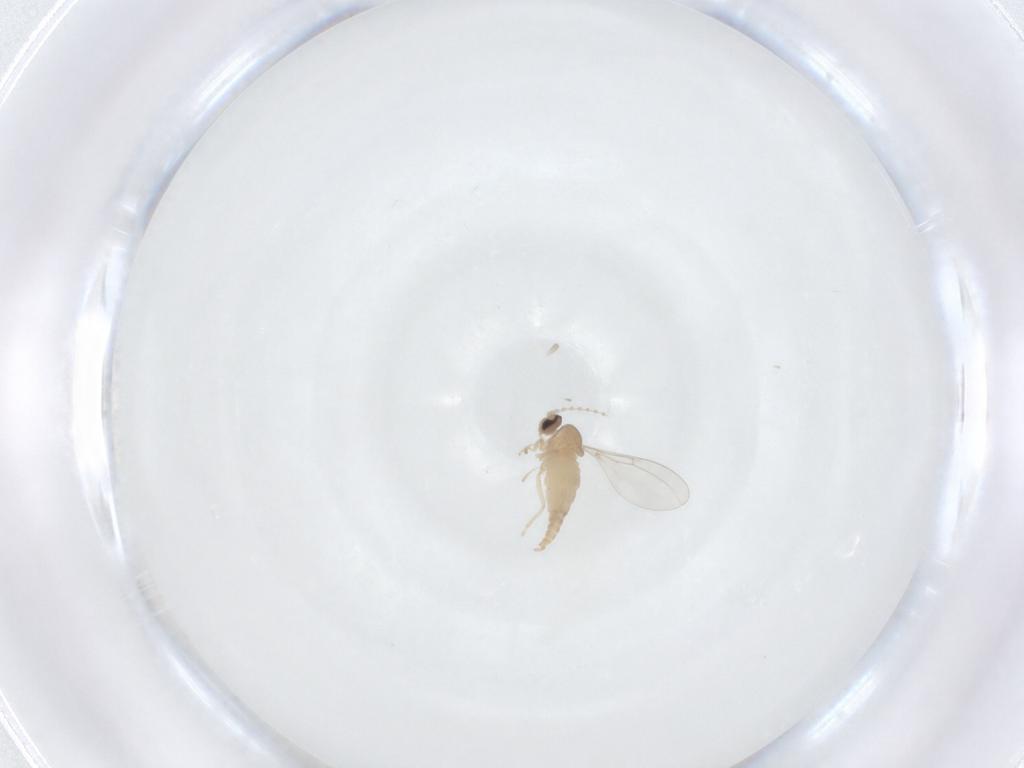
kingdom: Animalia
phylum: Arthropoda
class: Insecta
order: Diptera
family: Cecidomyiidae
